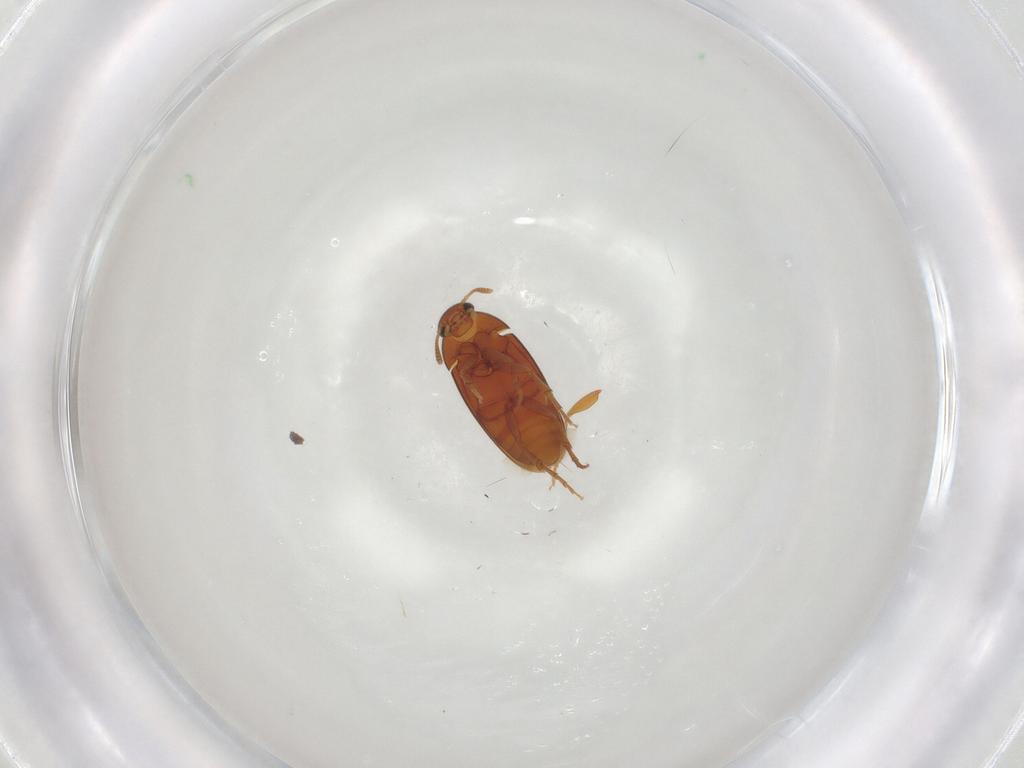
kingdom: Animalia
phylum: Arthropoda
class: Insecta
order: Coleoptera
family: Scraptiidae
